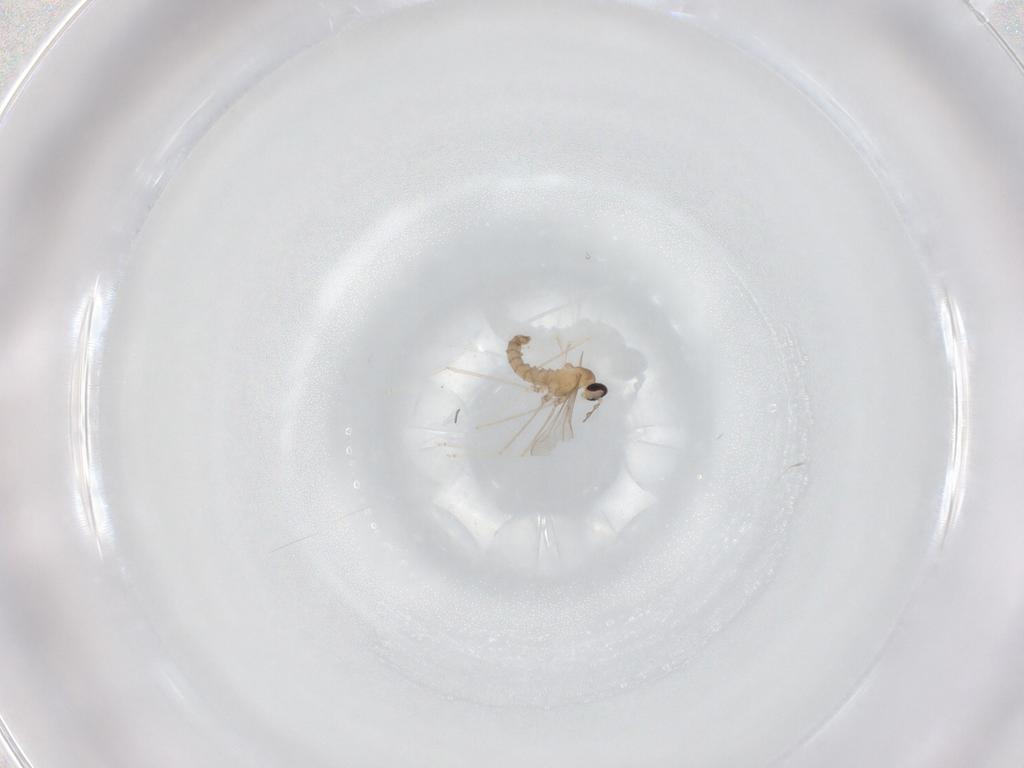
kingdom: Animalia
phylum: Arthropoda
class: Insecta
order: Diptera
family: Cecidomyiidae
